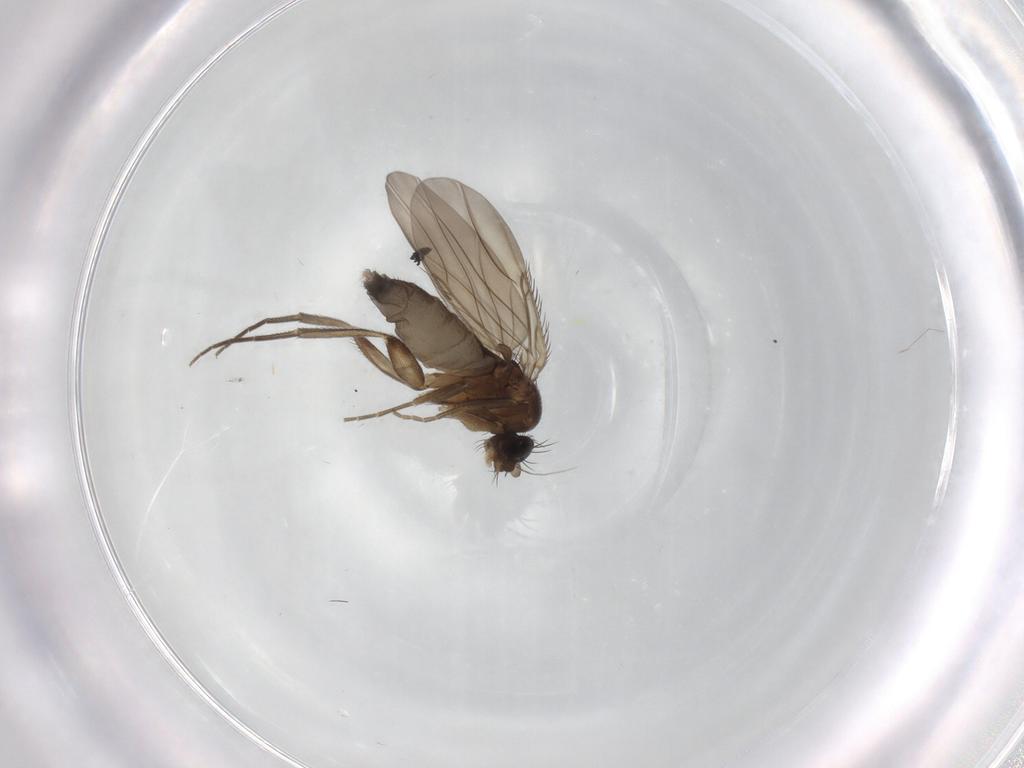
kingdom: Animalia
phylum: Arthropoda
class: Insecta
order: Diptera
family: Phoridae
